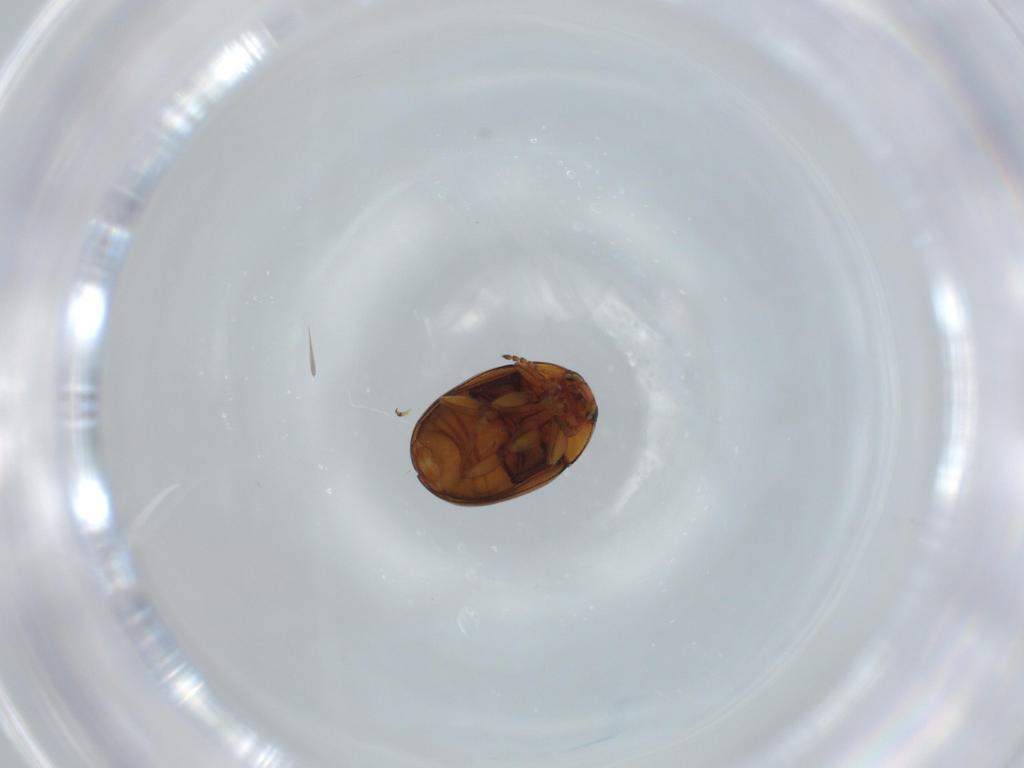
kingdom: Animalia
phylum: Arthropoda
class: Insecta
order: Coleoptera
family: Chrysomelidae
